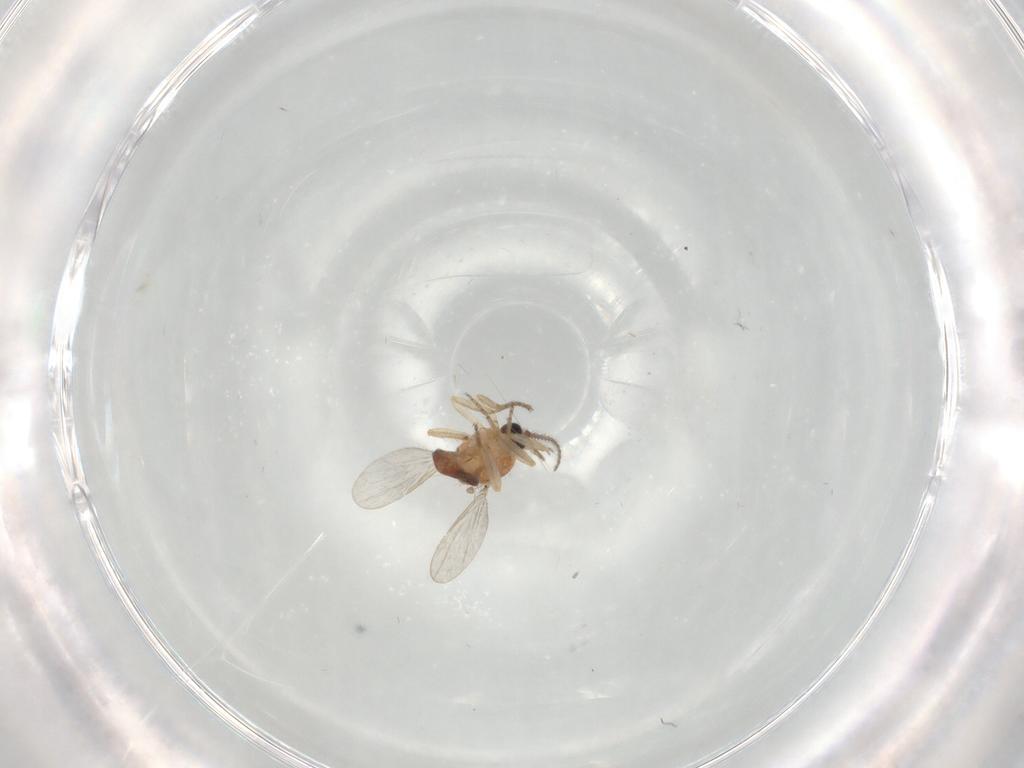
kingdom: Animalia
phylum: Arthropoda
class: Insecta
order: Diptera
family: Ceratopogonidae
